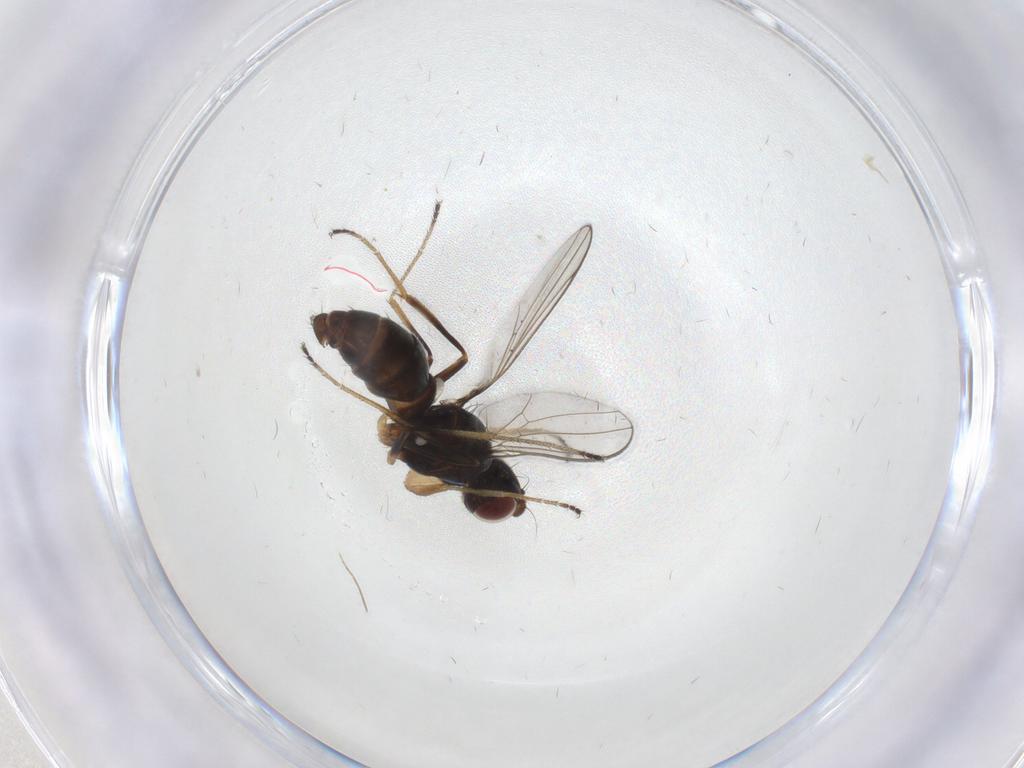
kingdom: Animalia
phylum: Arthropoda
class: Insecta
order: Diptera
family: Sepsidae
